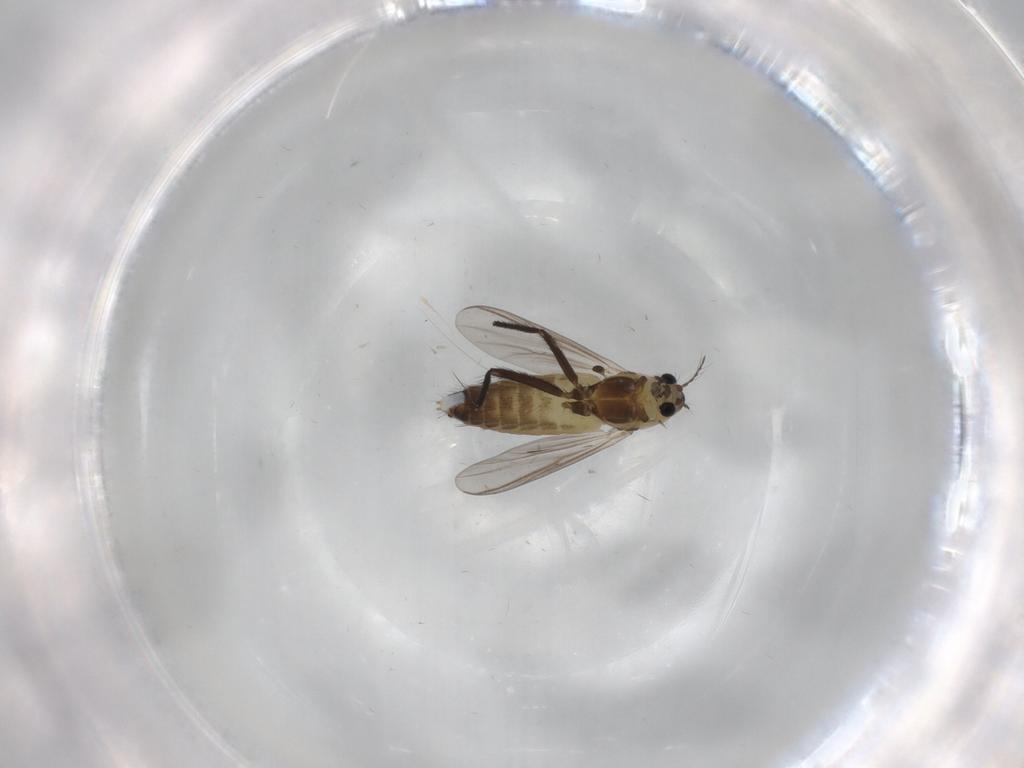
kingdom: Animalia
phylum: Arthropoda
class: Insecta
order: Diptera
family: Chironomidae
